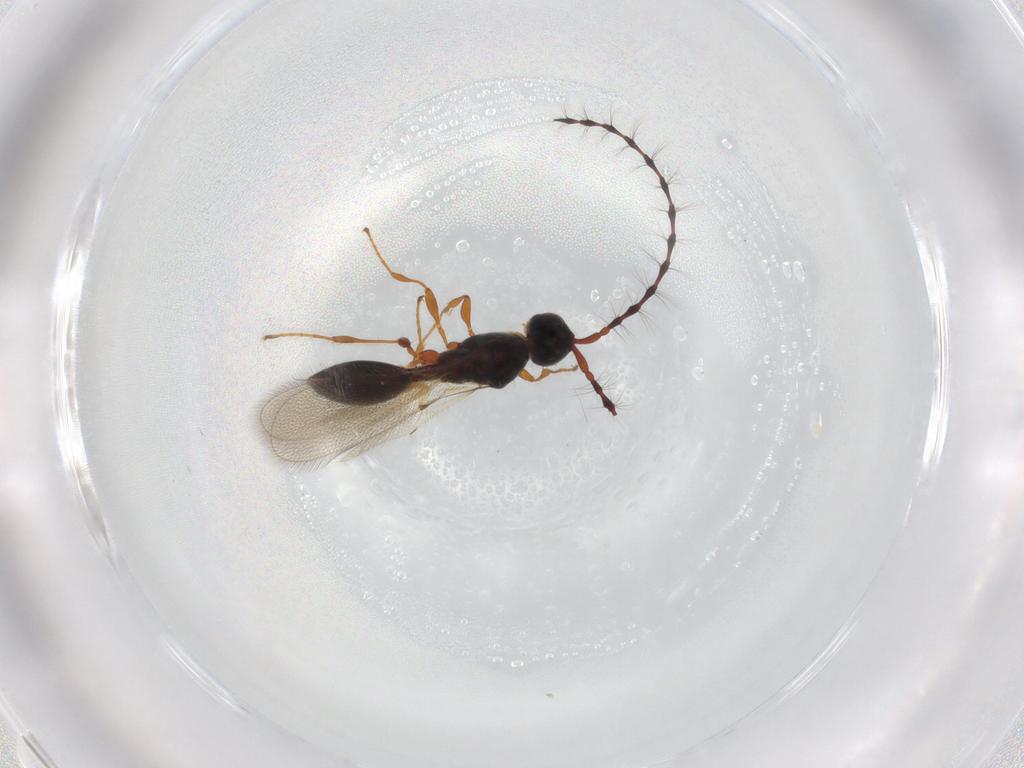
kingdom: Animalia
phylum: Arthropoda
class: Insecta
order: Hymenoptera
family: Diapriidae
